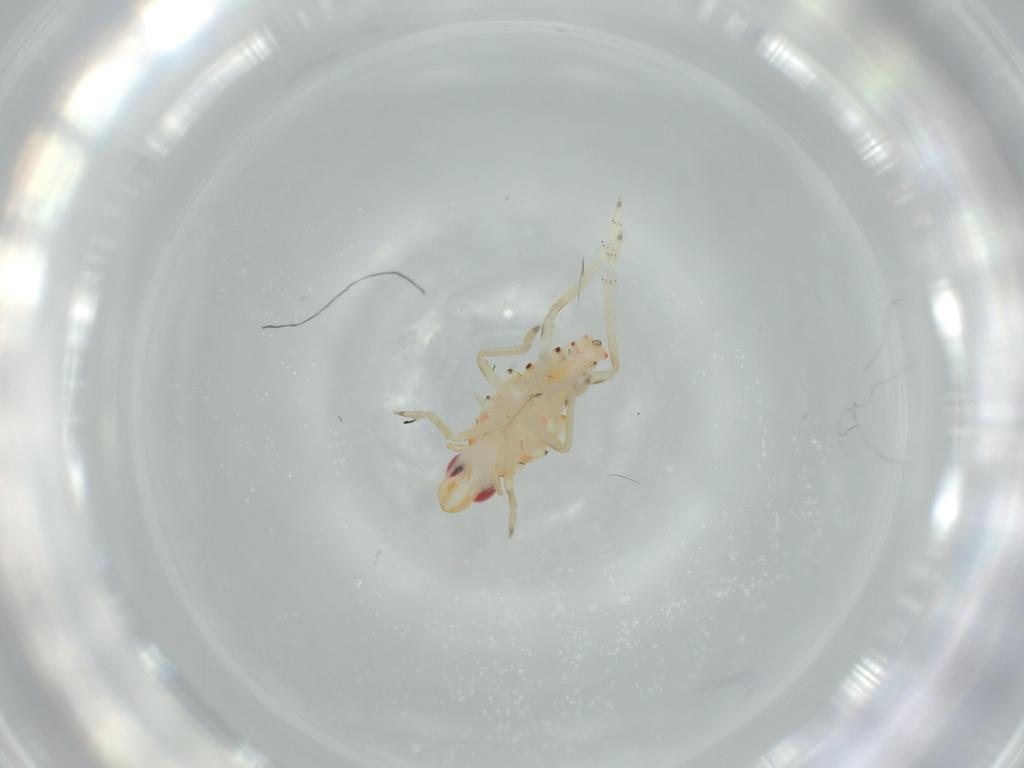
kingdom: Animalia
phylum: Arthropoda
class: Insecta
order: Hemiptera
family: Tropiduchidae
